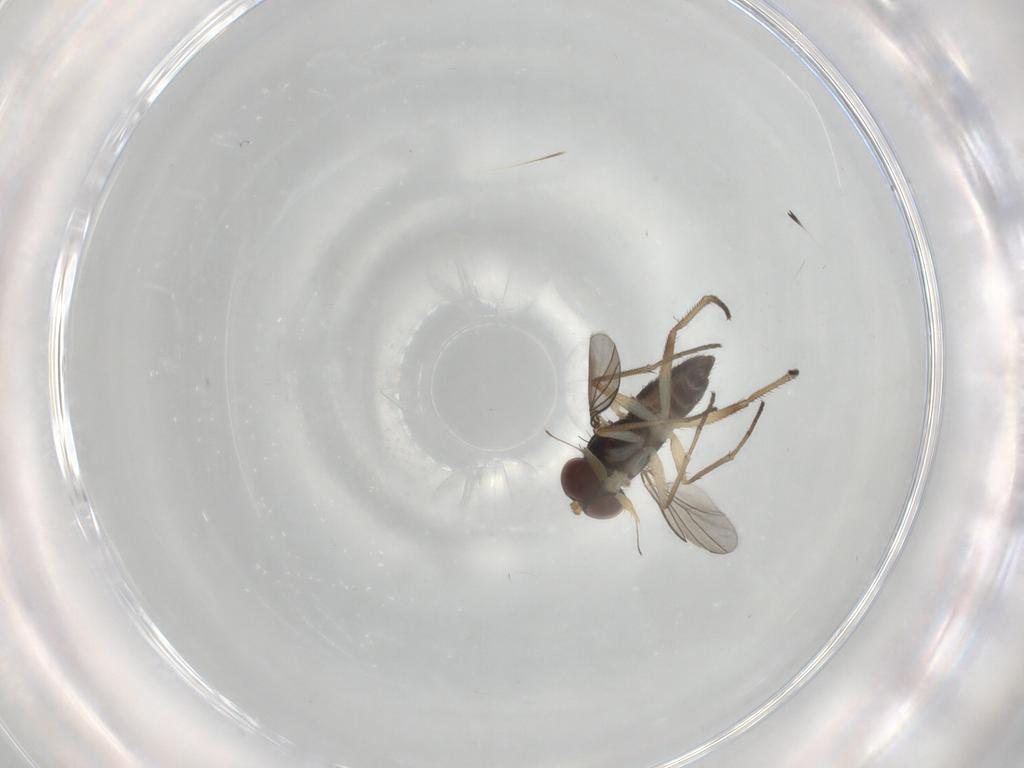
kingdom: Animalia
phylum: Arthropoda
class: Insecta
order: Diptera
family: Dolichopodidae
